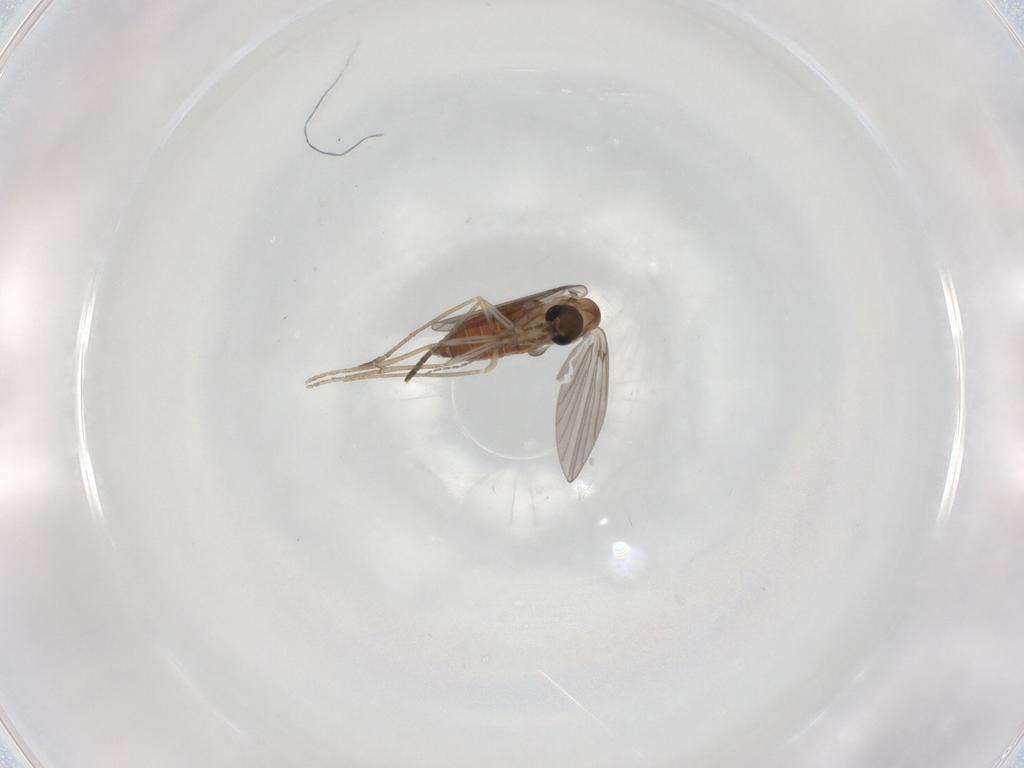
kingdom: Animalia
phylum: Arthropoda
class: Insecta
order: Diptera
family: Psychodidae
